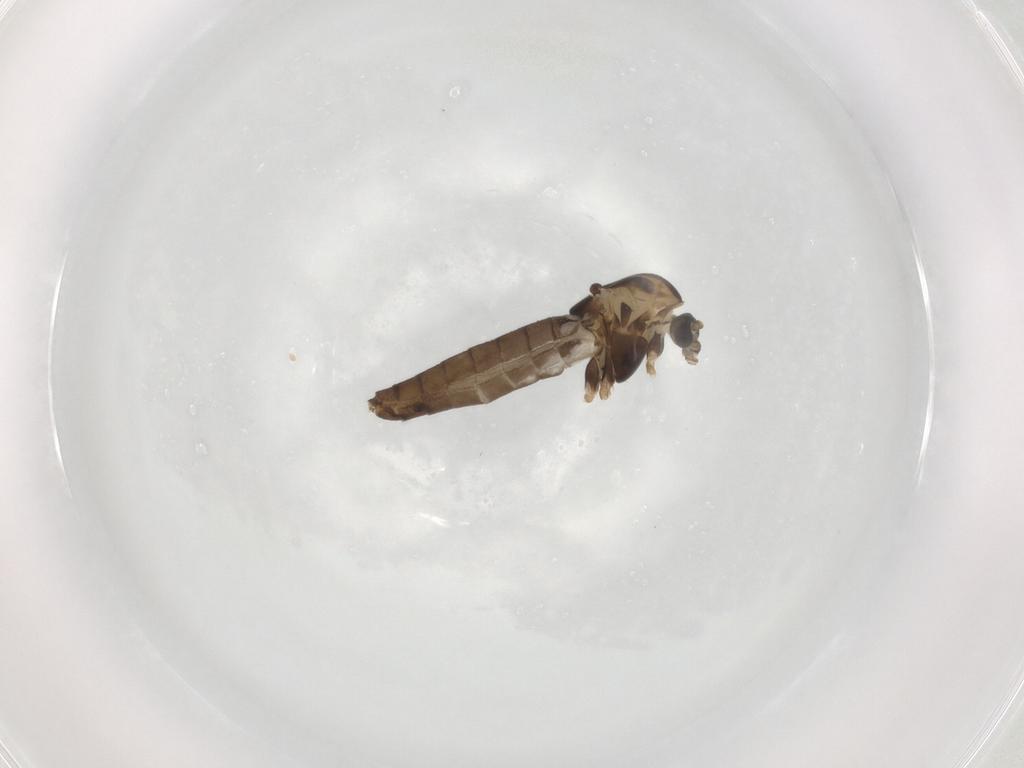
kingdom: Animalia
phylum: Arthropoda
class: Insecta
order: Diptera
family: Chironomidae
